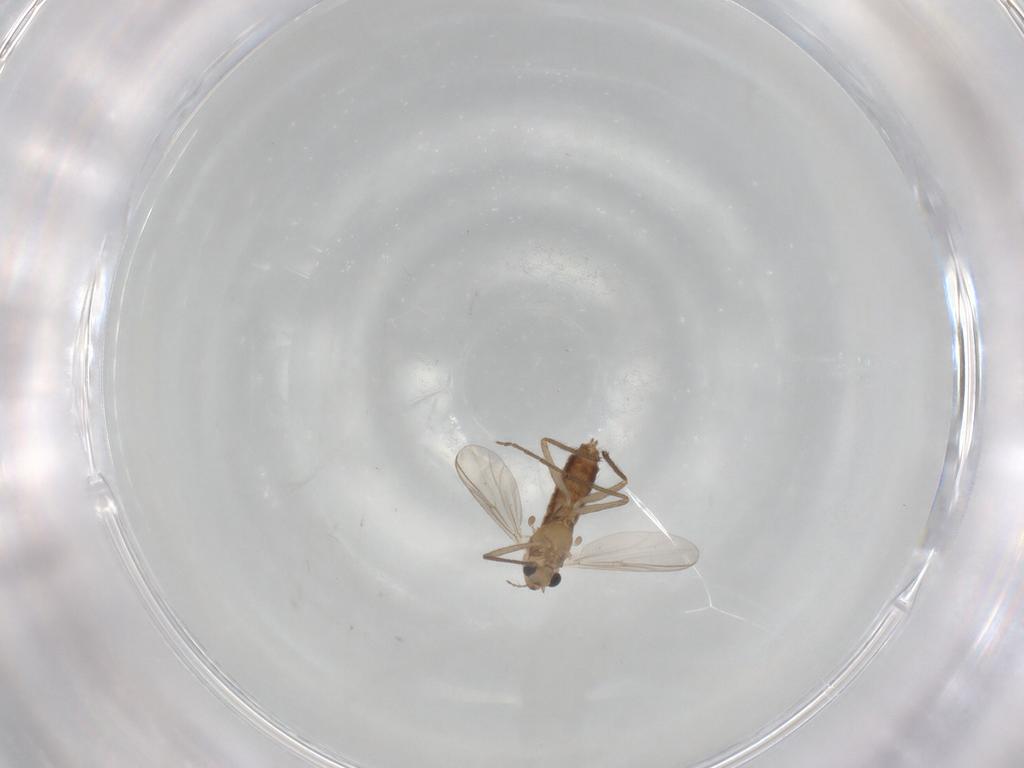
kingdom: Animalia
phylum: Arthropoda
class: Insecta
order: Diptera
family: Chironomidae
